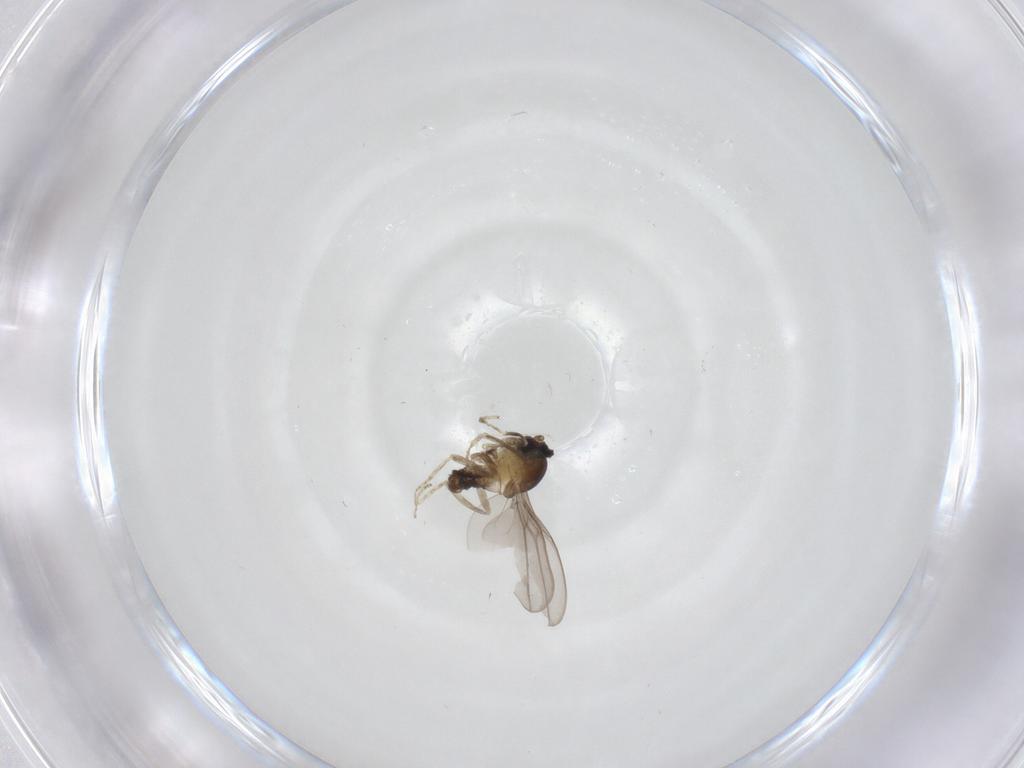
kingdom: Animalia
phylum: Arthropoda
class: Insecta
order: Diptera
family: Cecidomyiidae
